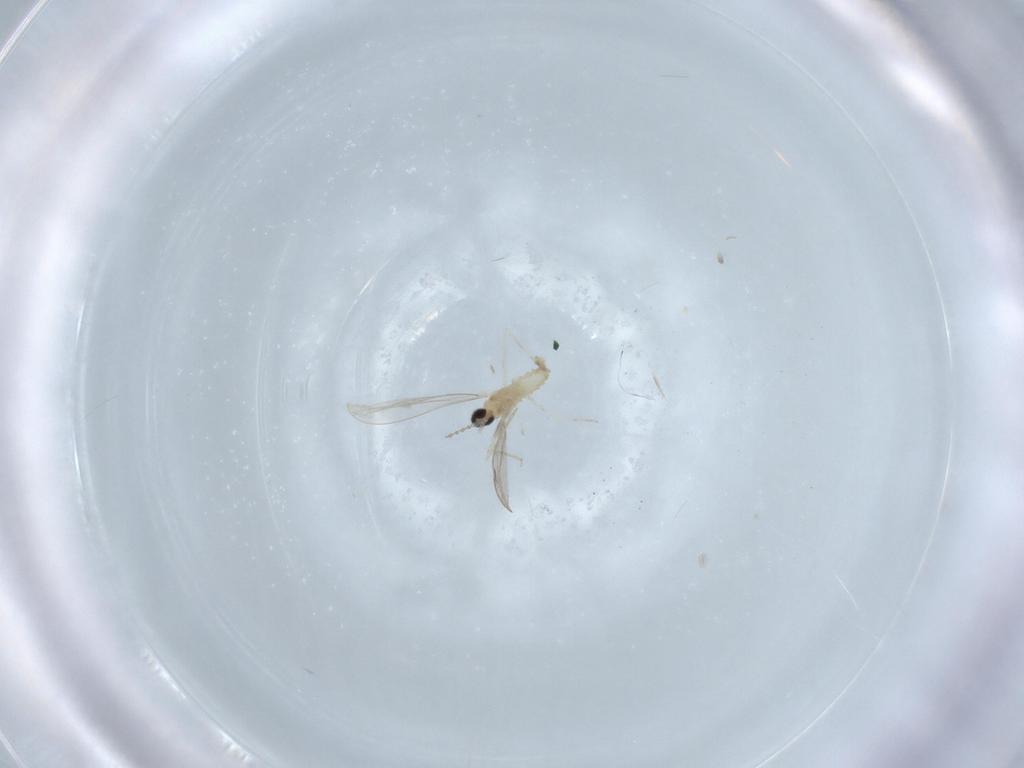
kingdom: Animalia
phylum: Arthropoda
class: Insecta
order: Diptera
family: Cecidomyiidae
